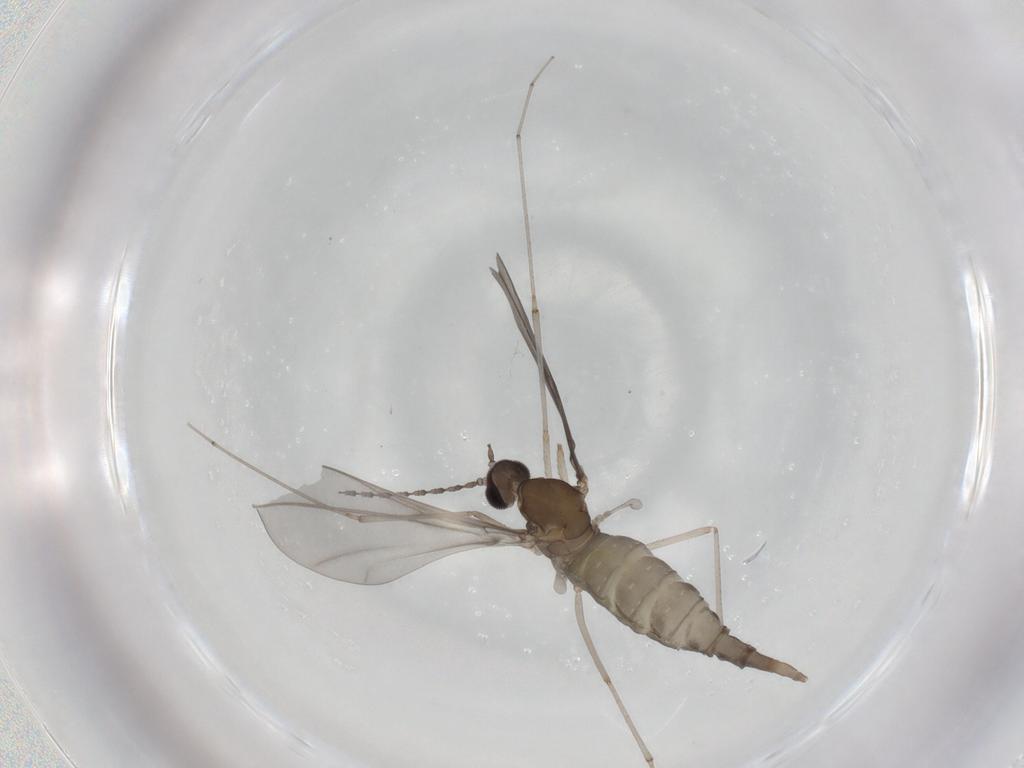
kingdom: Animalia
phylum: Arthropoda
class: Insecta
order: Diptera
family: Cecidomyiidae
